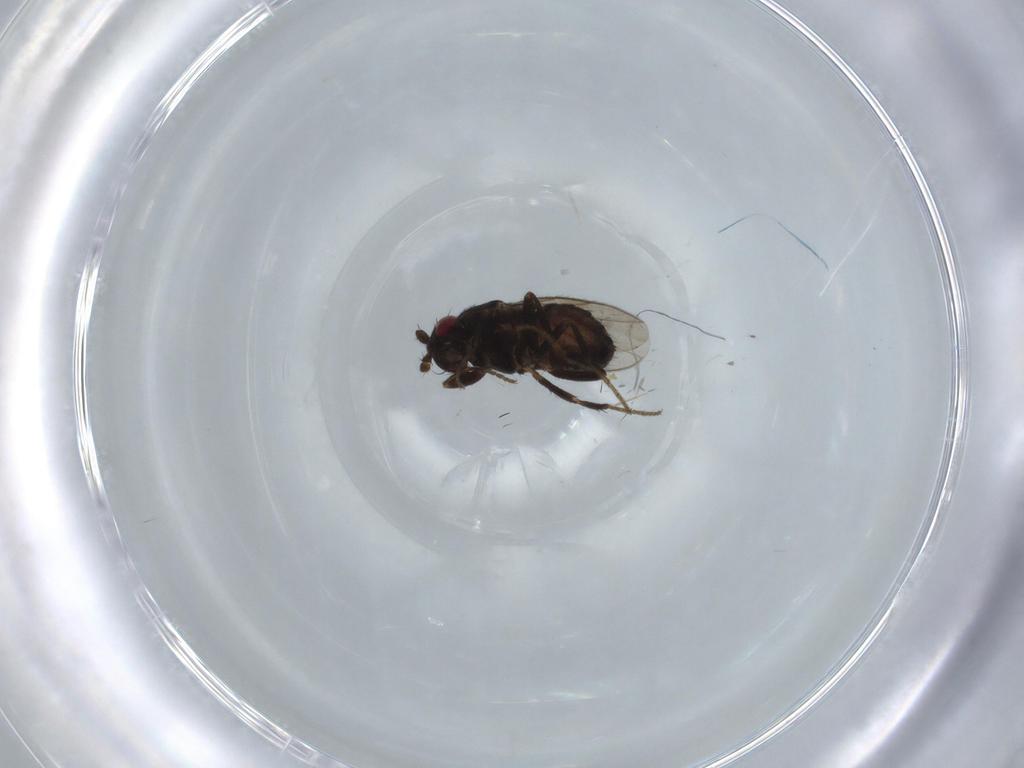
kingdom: Animalia
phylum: Arthropoda
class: Insecta
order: Diptera
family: Sphaeroceridae
